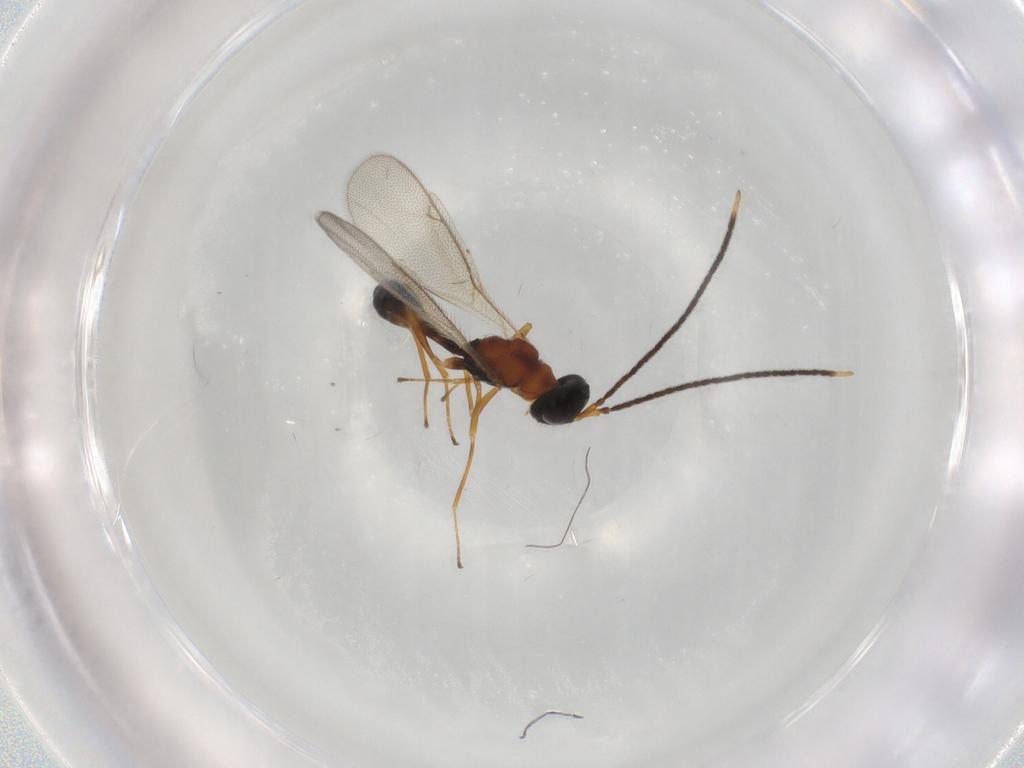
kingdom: Animalia
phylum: Arthropoda
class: Insecta
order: Hymenoptera
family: Pteromalidae
